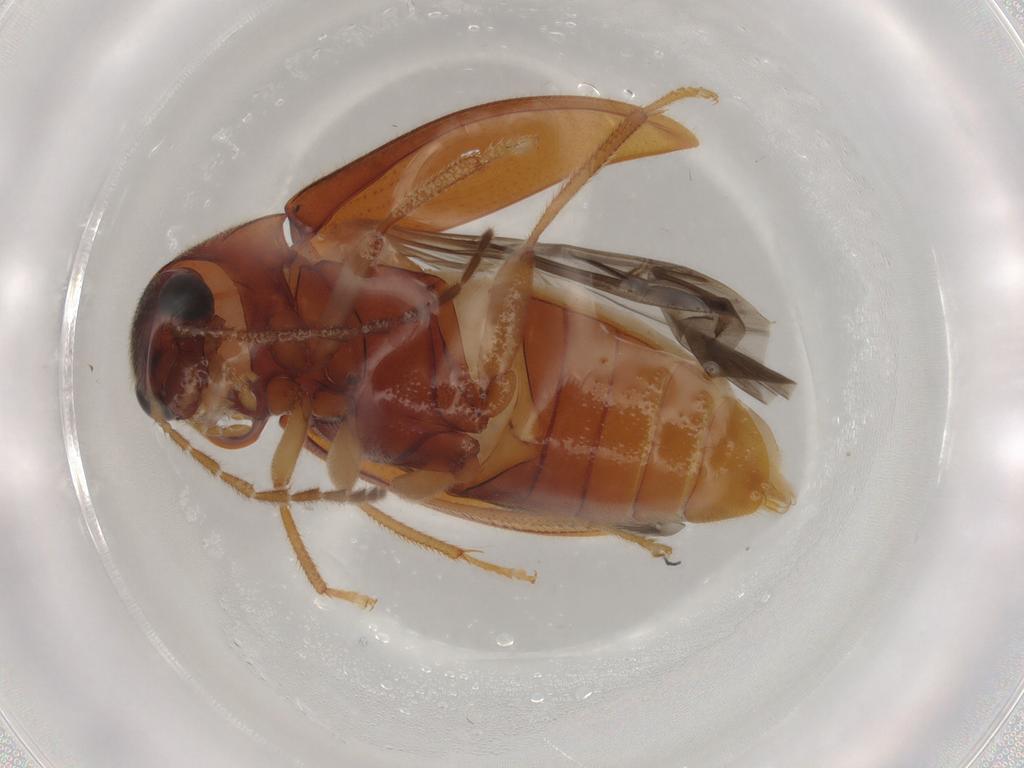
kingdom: Animalia
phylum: Arthropoda
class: Insecta
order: Coleoptera
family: Ptilodactylidae
